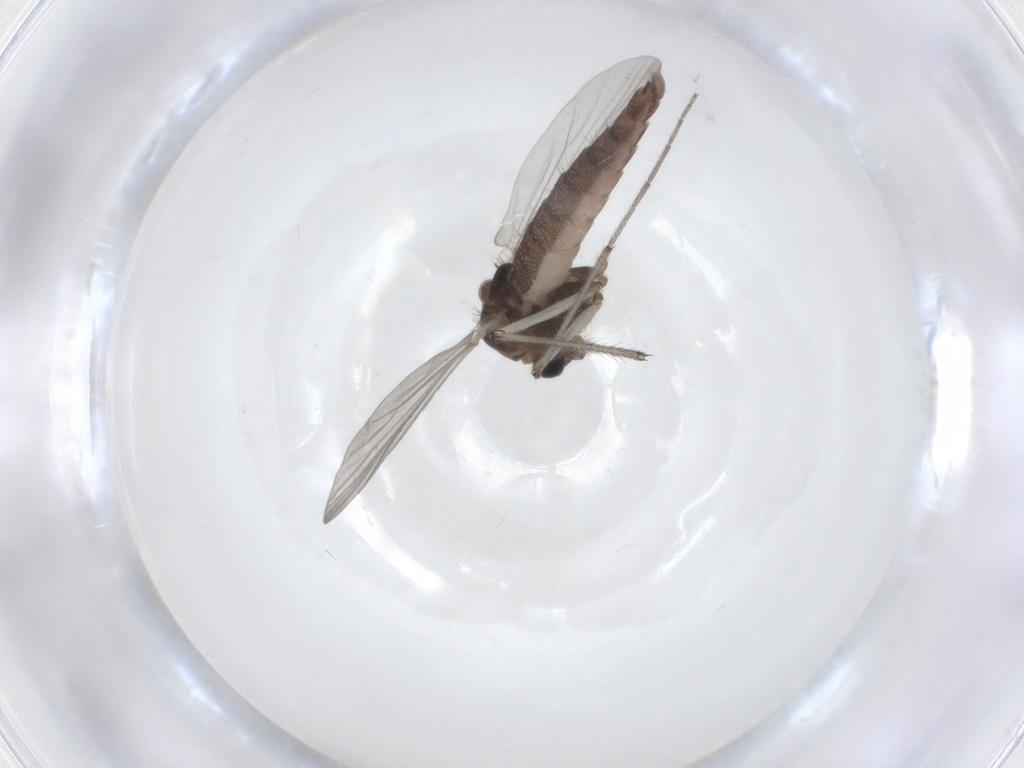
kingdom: Animalia
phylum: Arthropoda
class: Insecta
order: Diptera
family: Chironomidae
